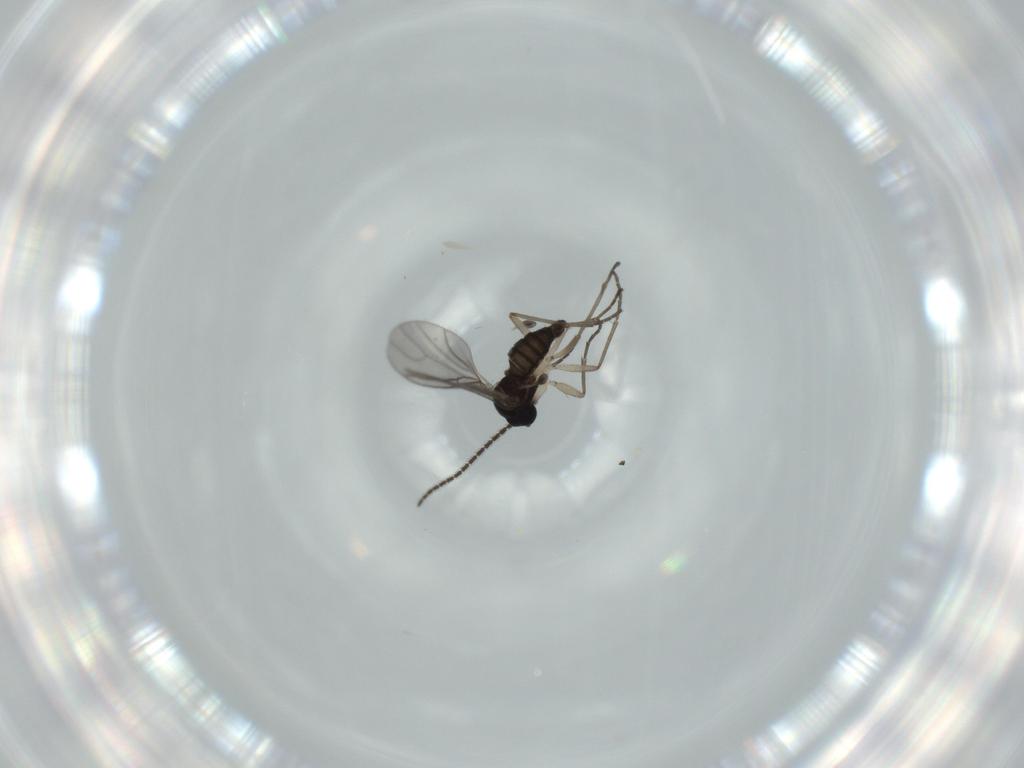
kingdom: Animalia
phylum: Arthropoda
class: Insecta
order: Diptera
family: Sciaridae
